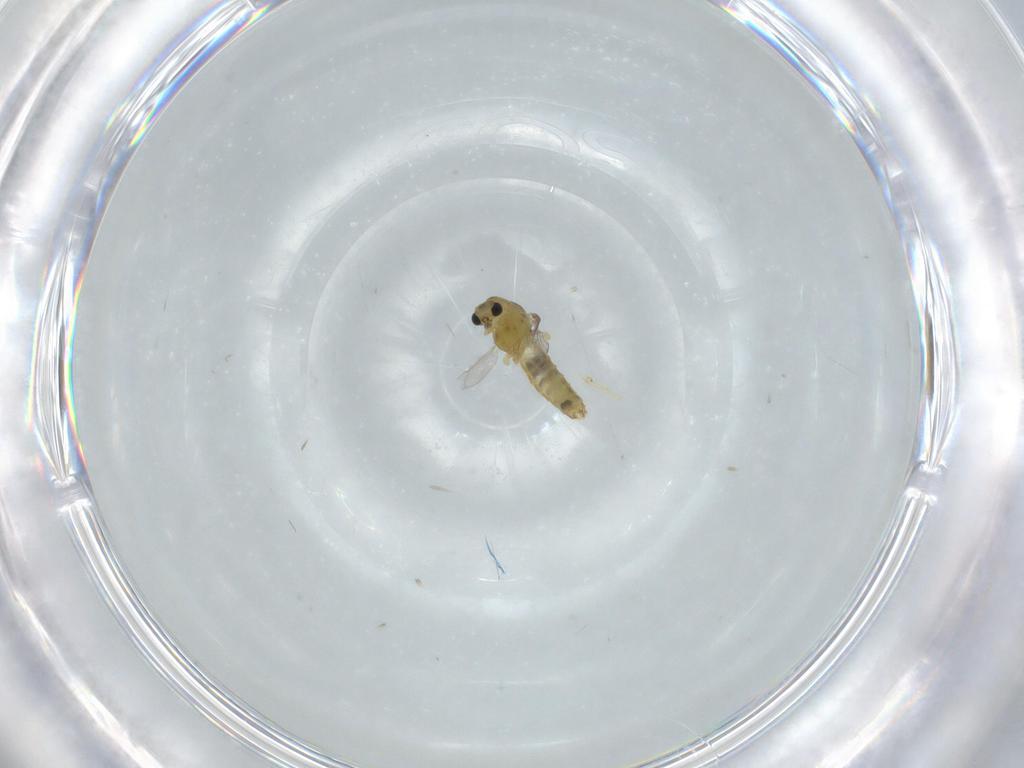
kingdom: Animalia
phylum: Arthropoda
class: Insecta
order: Diptera
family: Chironomidae
